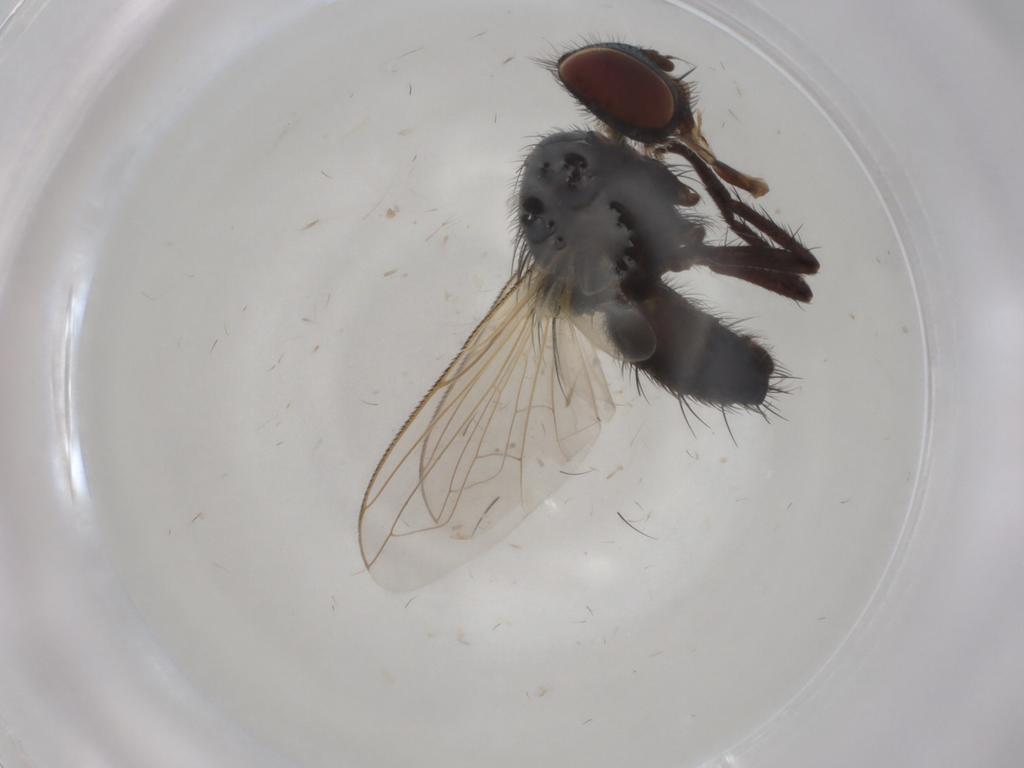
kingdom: Animalia
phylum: Arthropoda
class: Insecta
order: Diptera
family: Tachinidae
